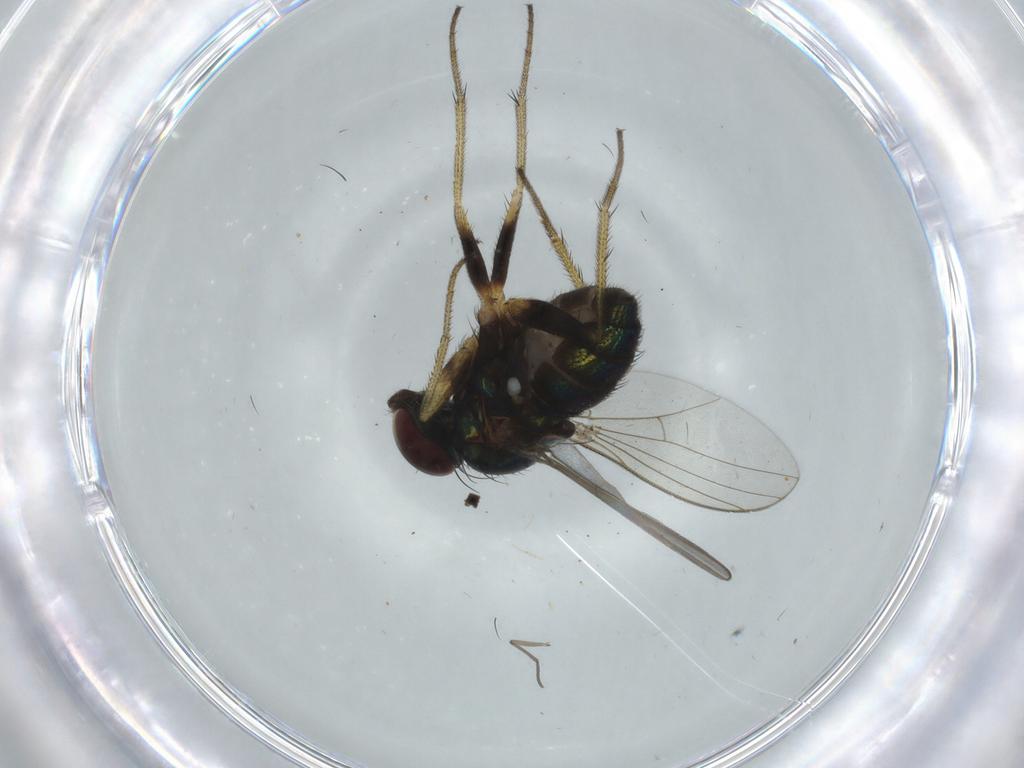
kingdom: Animalia
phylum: Arthropoda
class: Insecta
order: Diptera
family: Dolichopodidae
